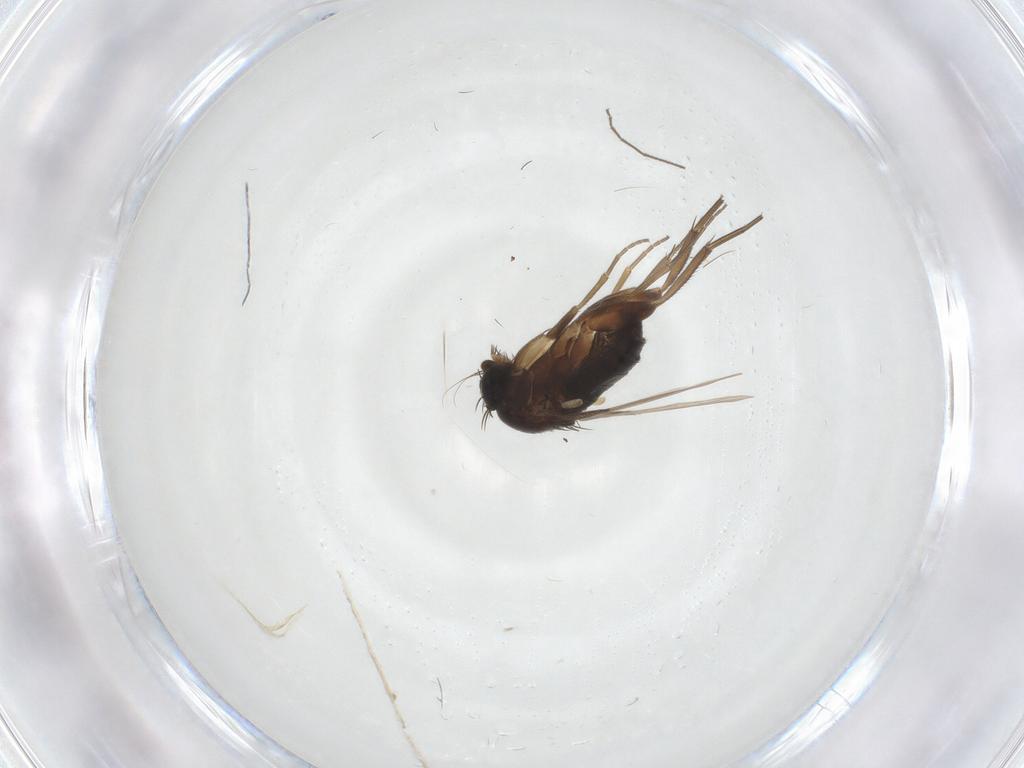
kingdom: Animalia
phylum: Arthropoda
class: Insecta
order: Diptera
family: Phoridae
